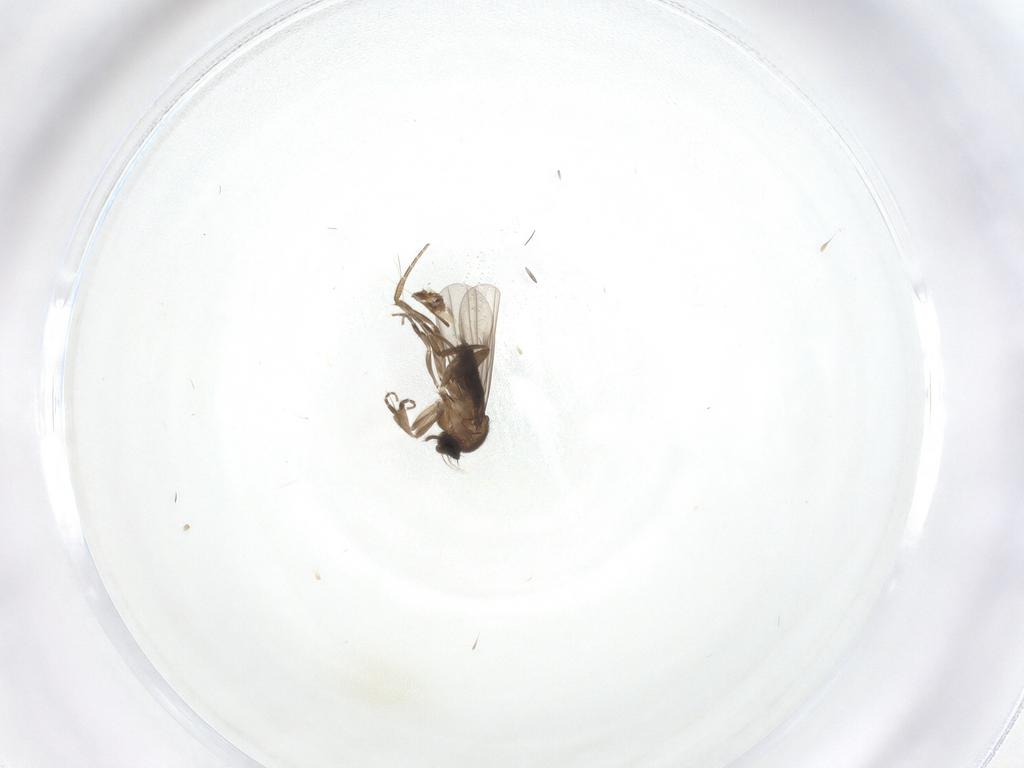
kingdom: Animalia
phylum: Arthropoda
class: Insecta
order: Diptera
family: Phoridae
